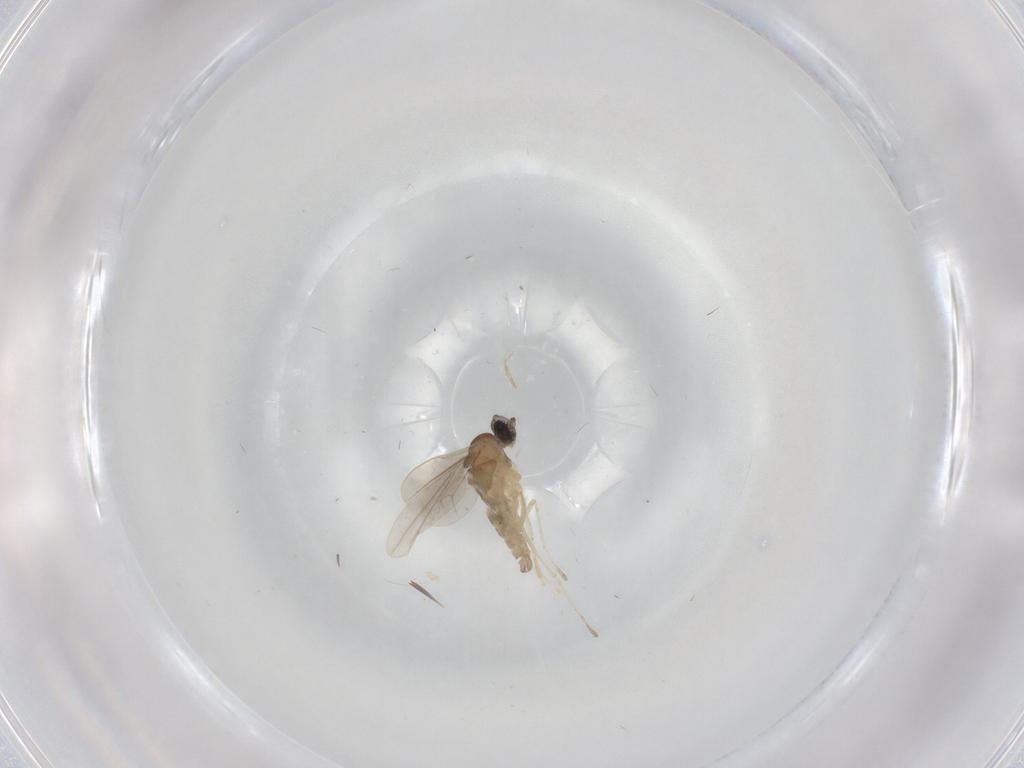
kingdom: Animalia
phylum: Arthropoda
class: Insecta
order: Diptera
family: Cecidomyiidae
